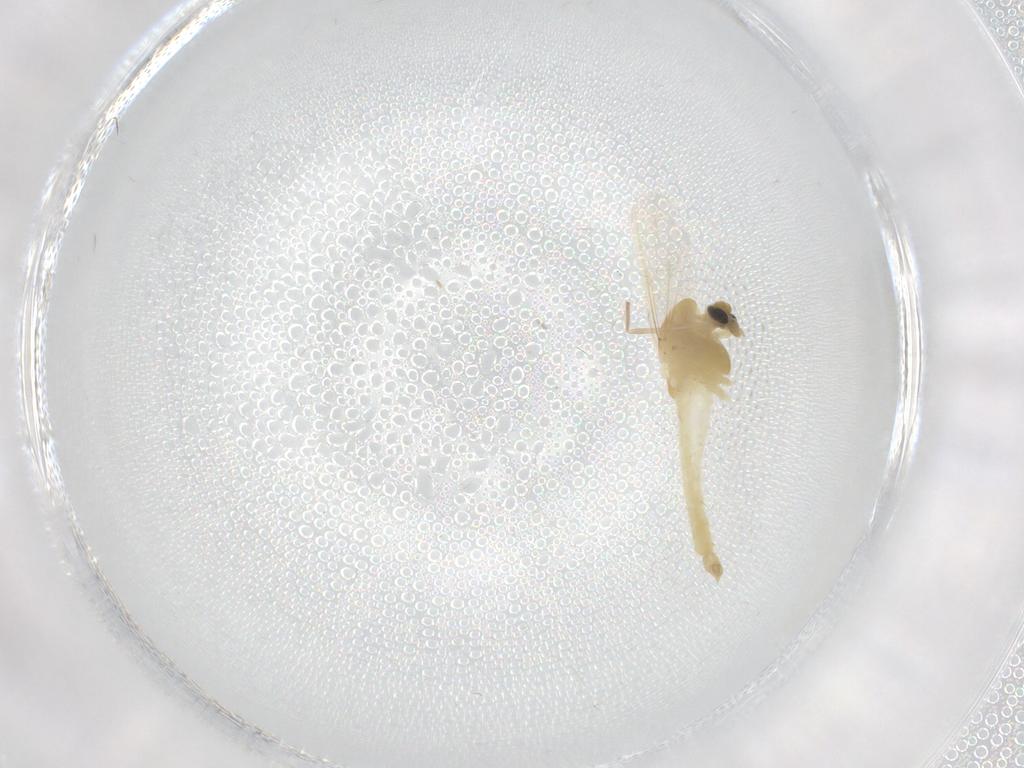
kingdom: Animalia
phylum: Arthropoda
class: Insecta
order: Diptera
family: Chironomidae
